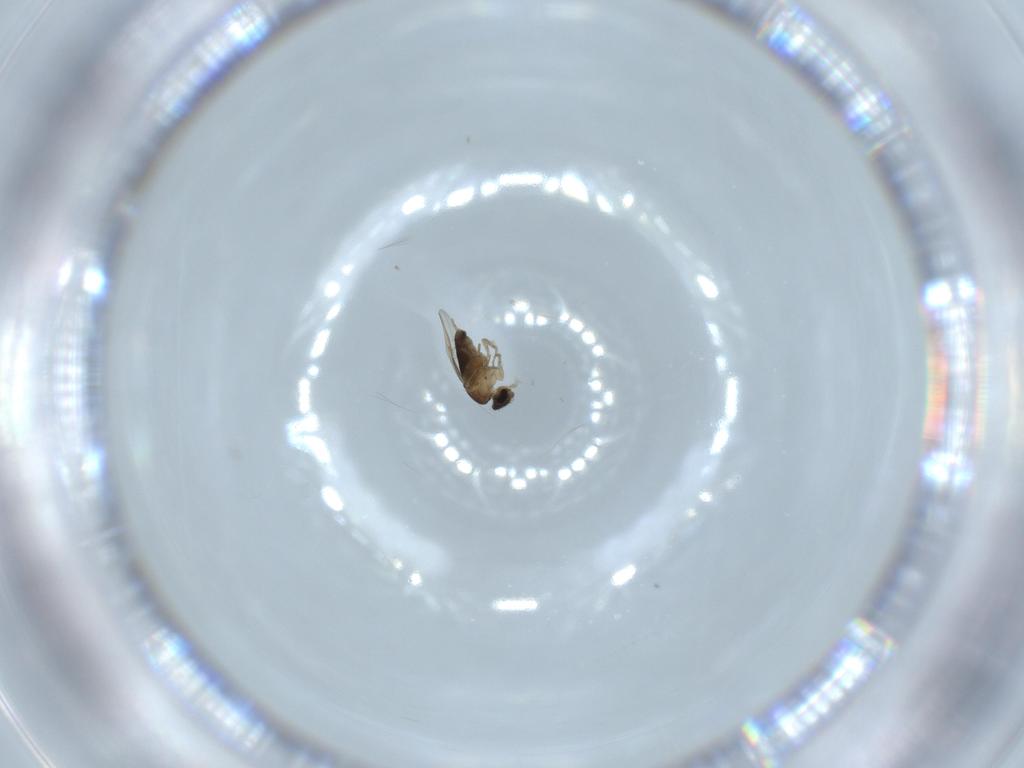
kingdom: Animalia
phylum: Arthropoda
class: Insecta
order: Diptera
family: Phoridae
